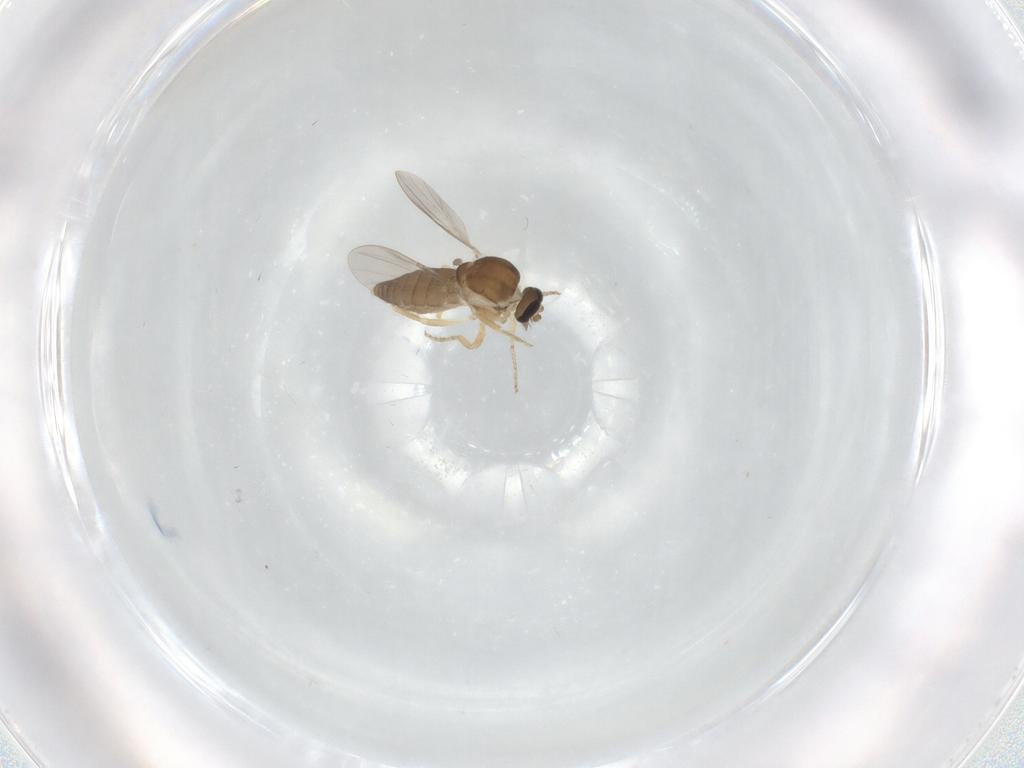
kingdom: Animalia
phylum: Arthropoda
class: Insecta
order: Diptera
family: Ceratopogonidae
